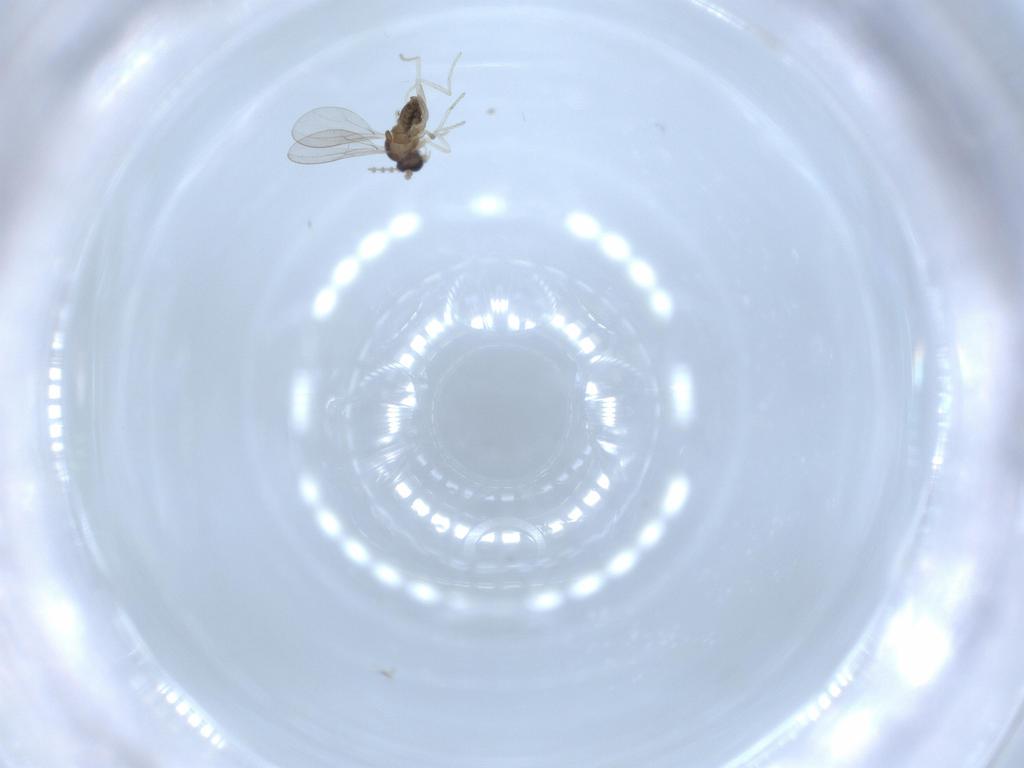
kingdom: Animalia
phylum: Arthropoda
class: Insecta
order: Diptera
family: Cecidomyiidae
